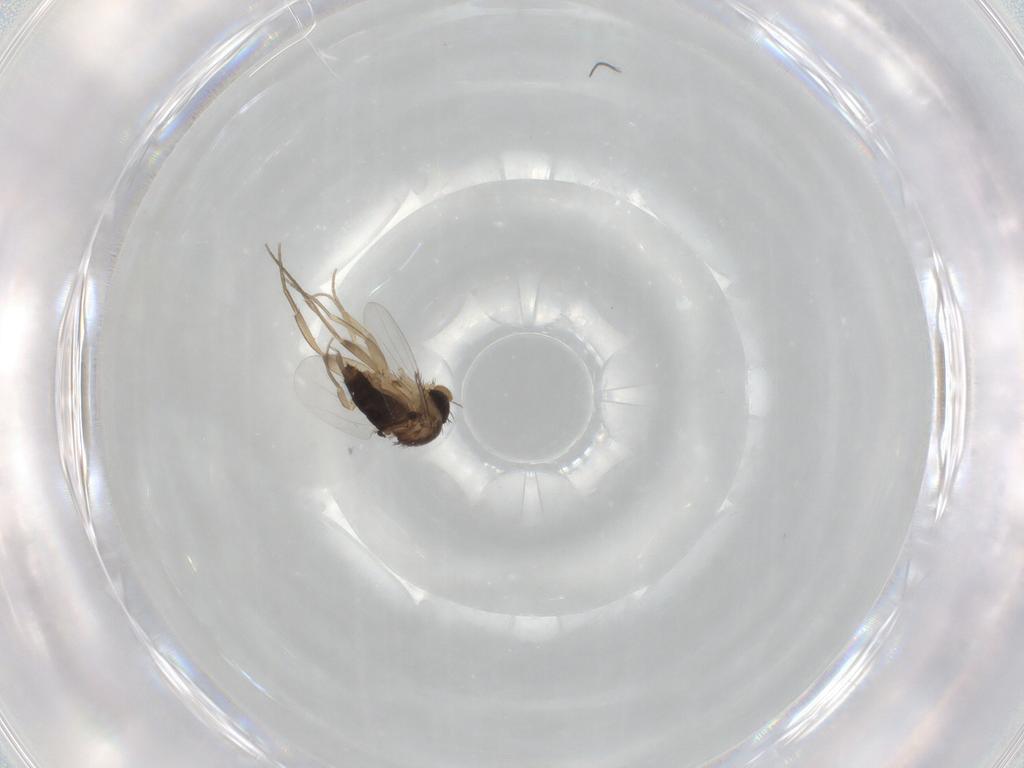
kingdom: Animalia
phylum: Arthropoda
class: Insecta
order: Diptera
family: Phoridae
